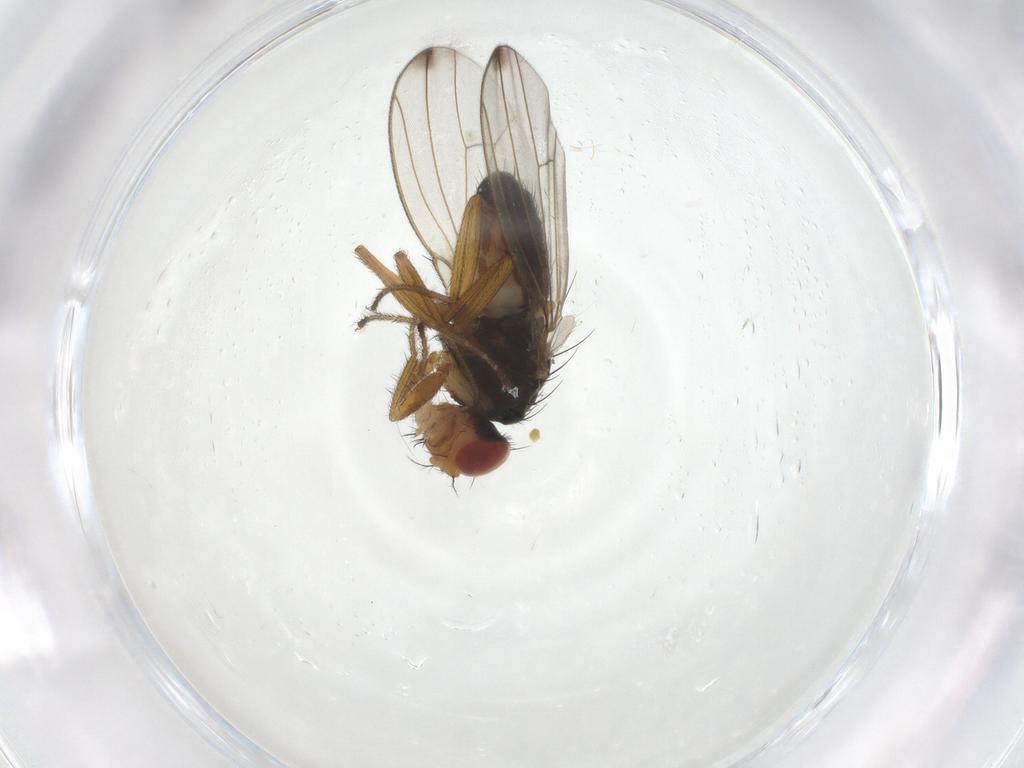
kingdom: Animalia
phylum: Arthropoda
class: Insecta
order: Diptera
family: Drosophilidae
